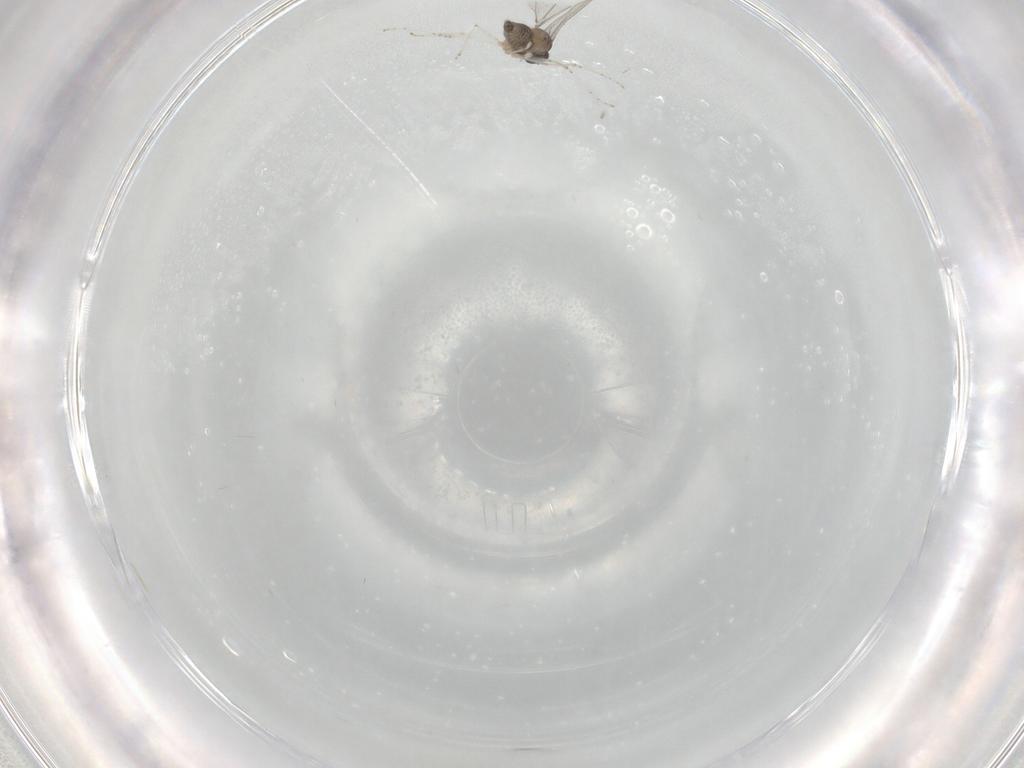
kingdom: Animalia
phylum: Arthropoda
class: Insecta
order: Diptera
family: Cecidomyiidae
